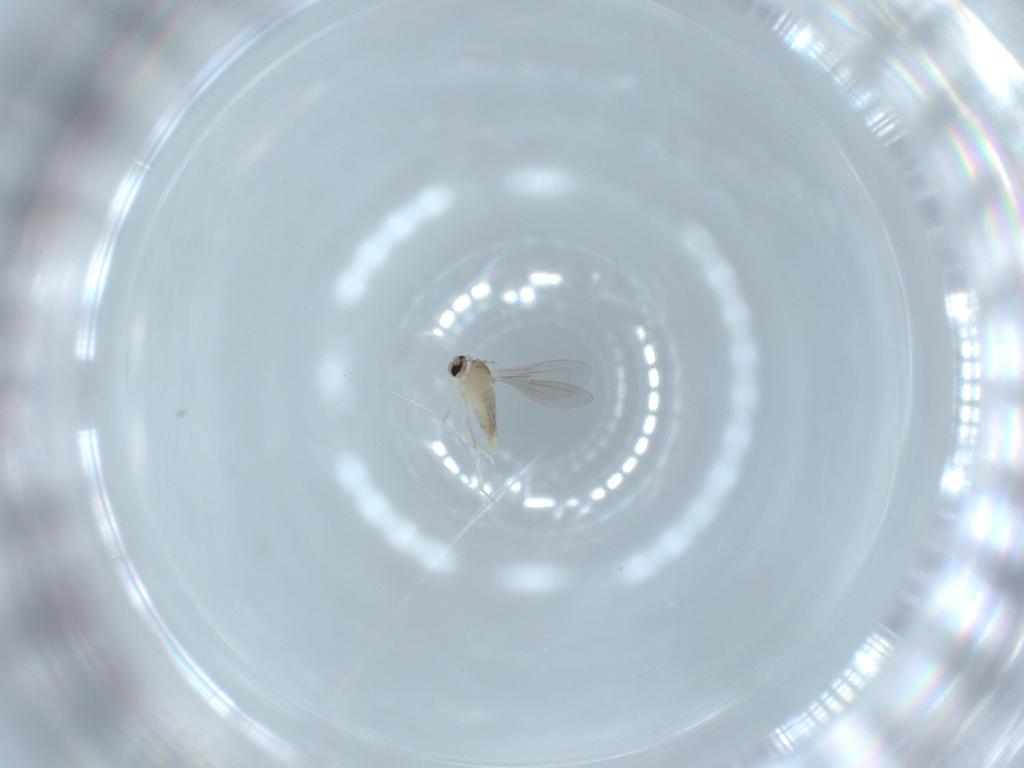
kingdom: Animalia
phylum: Arthropoda
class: Insecta
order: Diptera
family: Cecidomyiidae
